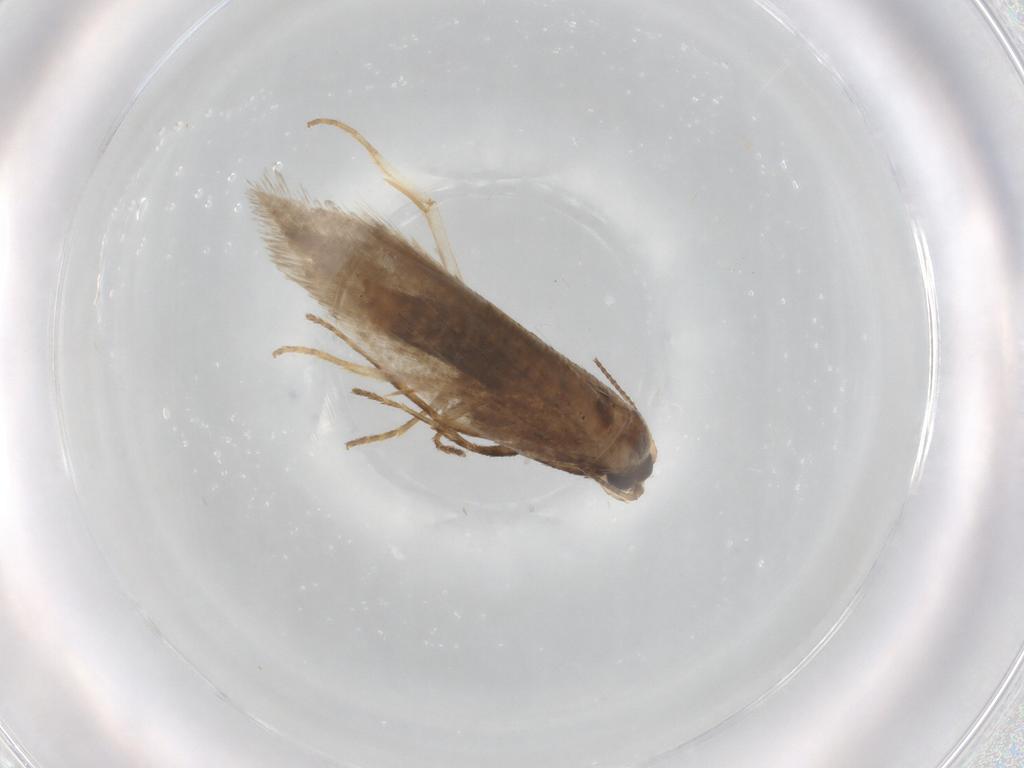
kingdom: Animalia
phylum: Arthropoda
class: Insecta
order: Lepidoptera
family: Nepticulidae
